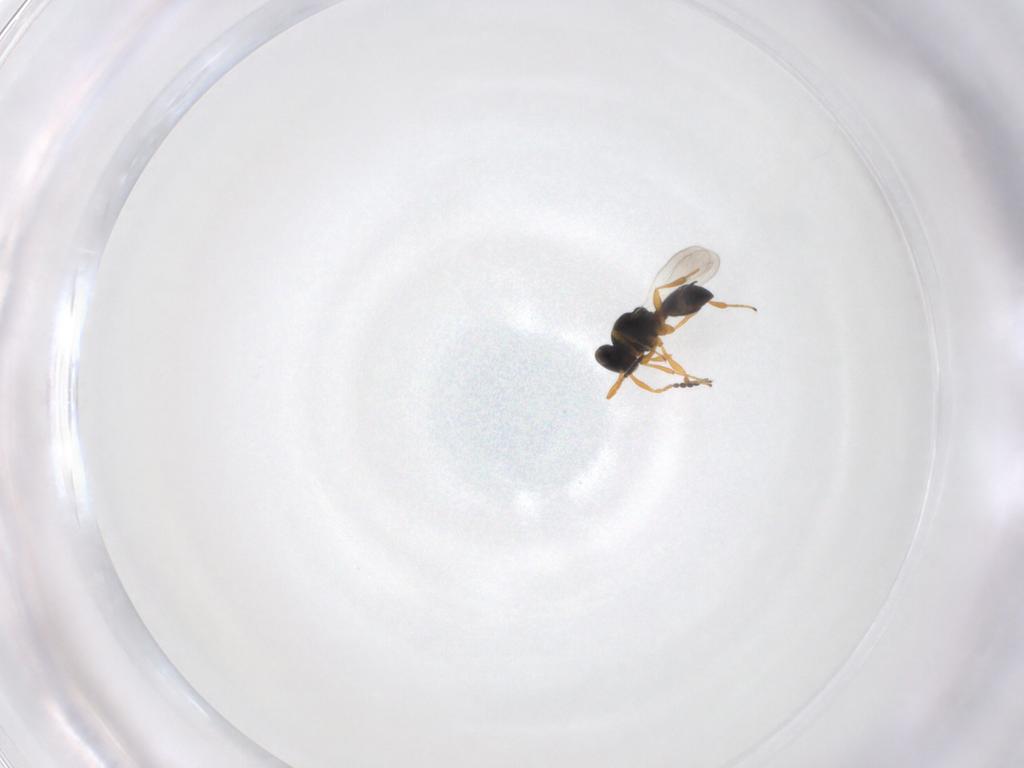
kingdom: Animalia
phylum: Arthropoda
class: Insecta
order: Hymenoptera
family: Platygastridae
